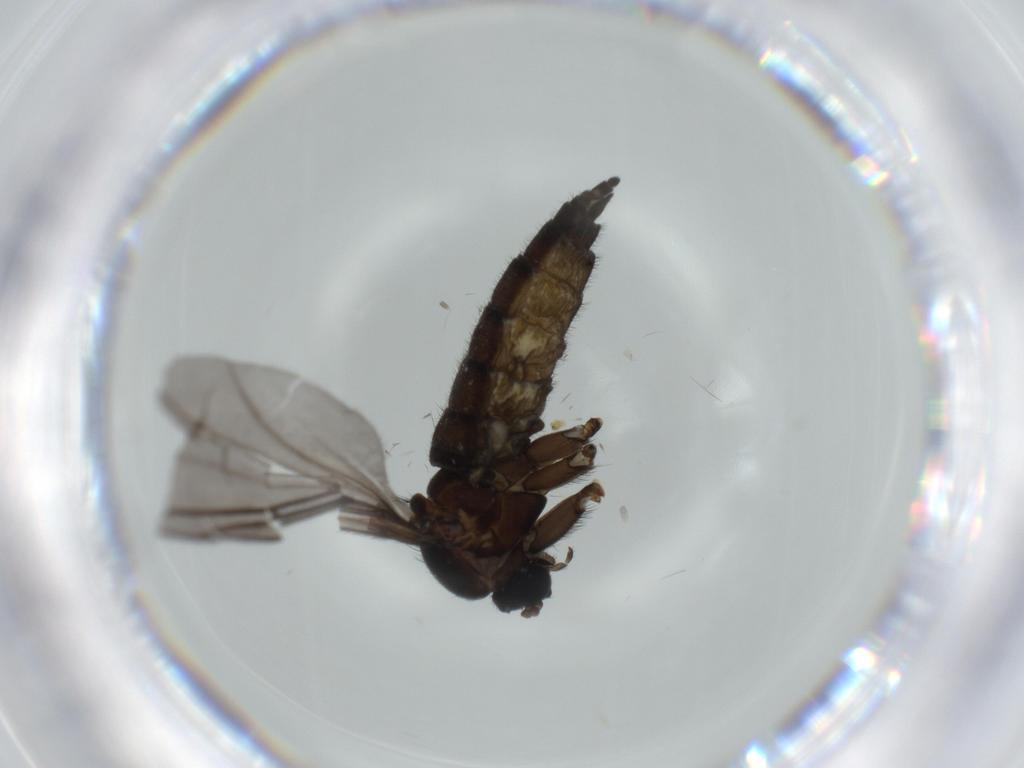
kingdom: Animalia
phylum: Arthropoda
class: Insecta
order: Diptera
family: Sciaridae
